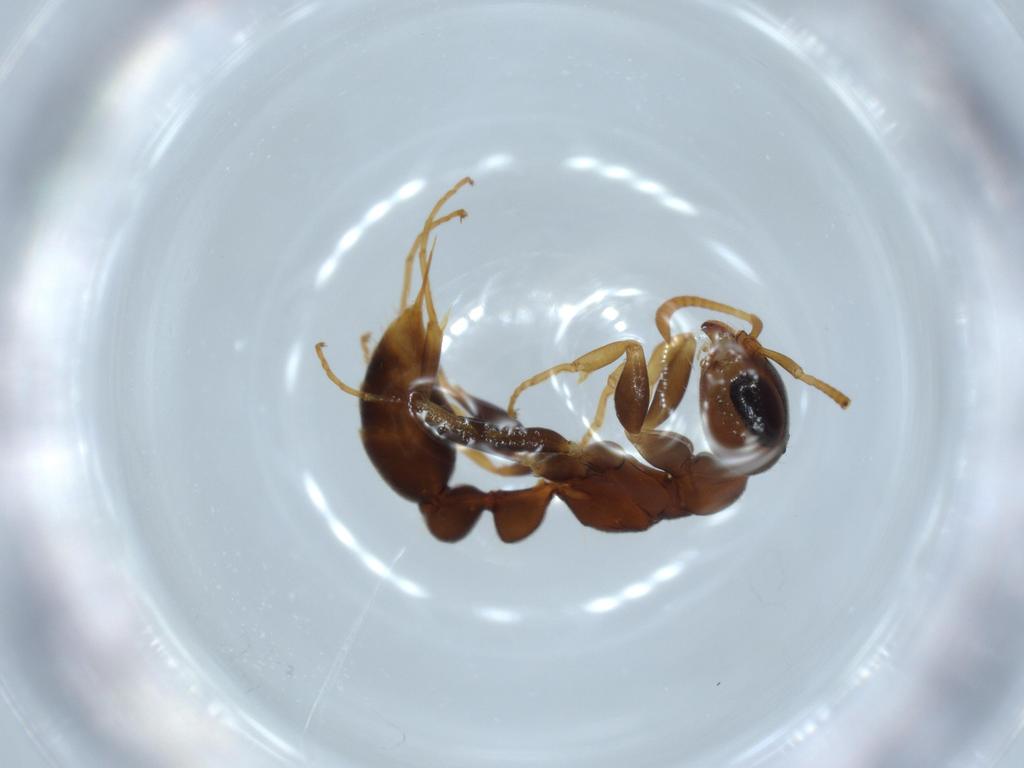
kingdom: Animalia
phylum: Arthropoda
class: Insecta
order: Hymenoptera
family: Formicidae
